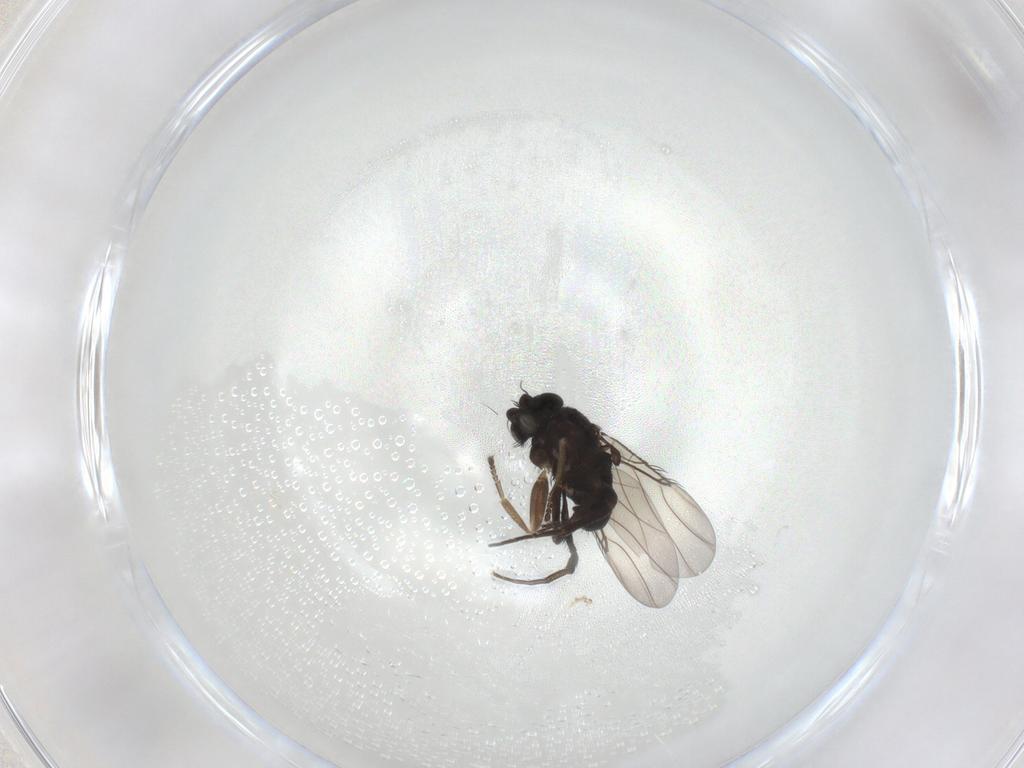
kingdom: Animalia
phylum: Arthropoda
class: Insecta
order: Diptera
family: Phoridae
